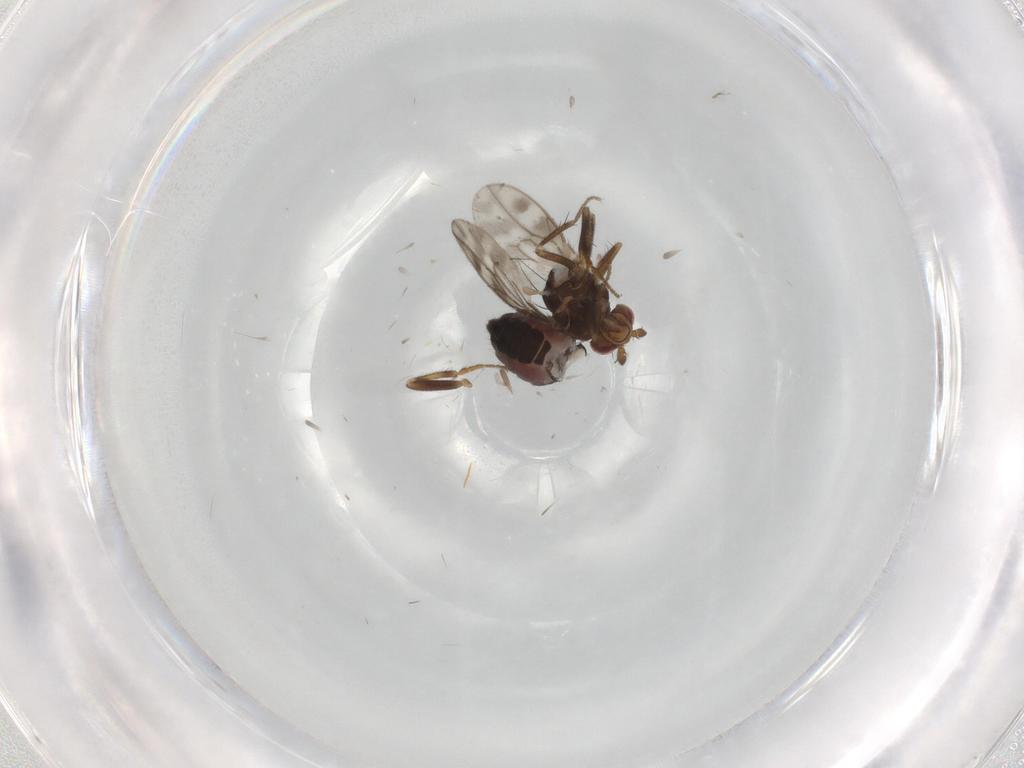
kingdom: Animalia
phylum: Arthropoda
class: Insecta
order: Diptera
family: Sphaeroceridae
